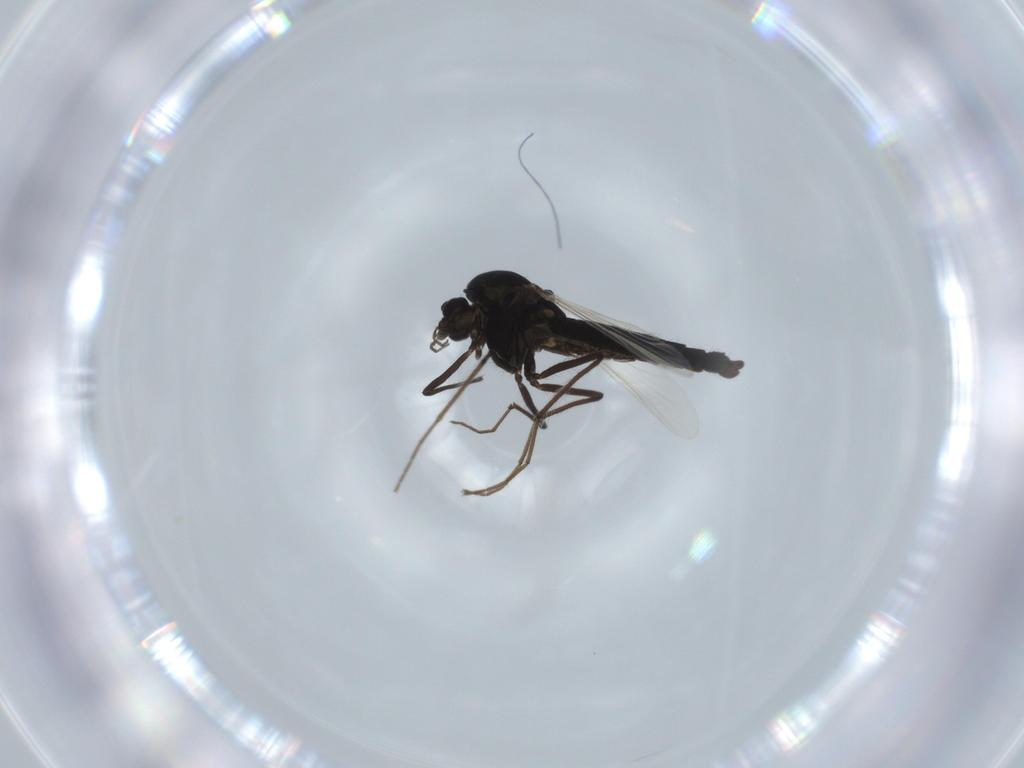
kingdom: Animalia
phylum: Arthropoda
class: Insecta
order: Diptera
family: Chironomidae
